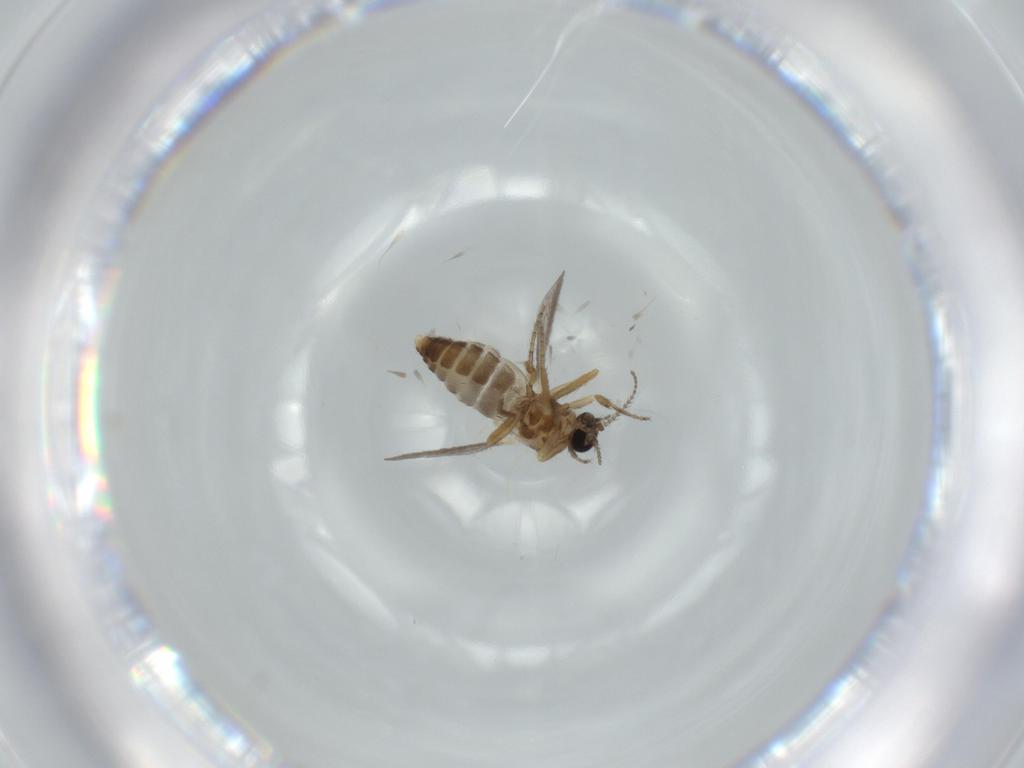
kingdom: Animalia
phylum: Arthropoda
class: Insecta
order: Diptera
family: Ceratopogonidae
